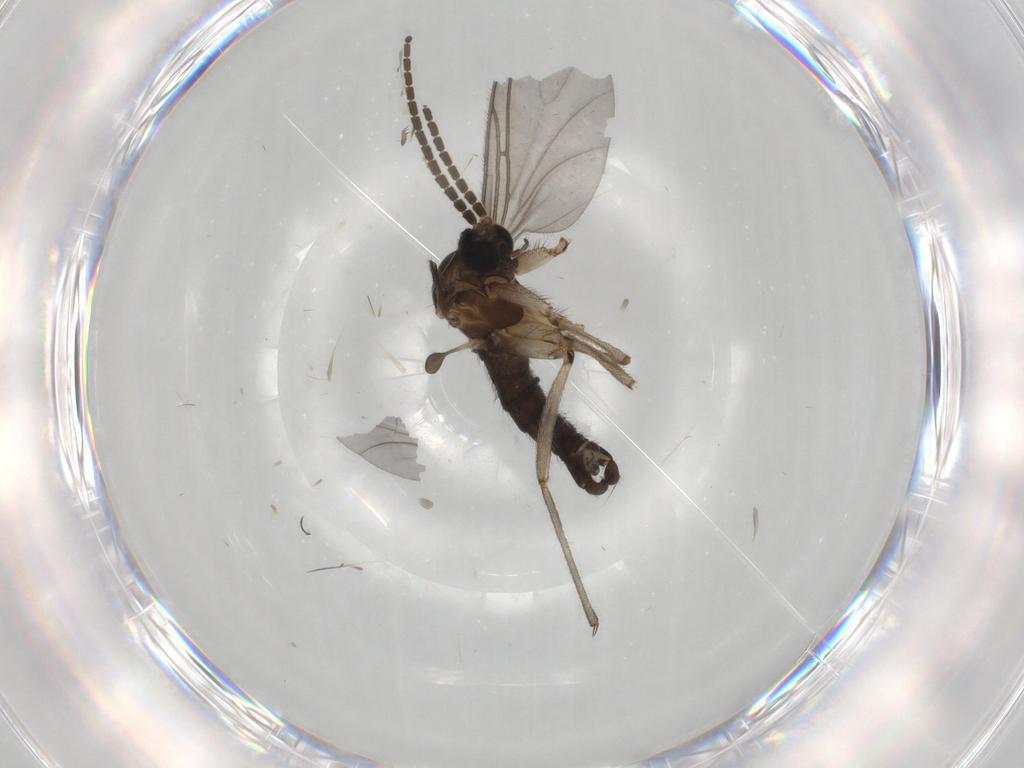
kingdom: Animalia
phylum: Arthropoda
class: Insecta
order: Diptera
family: Sciaridae
